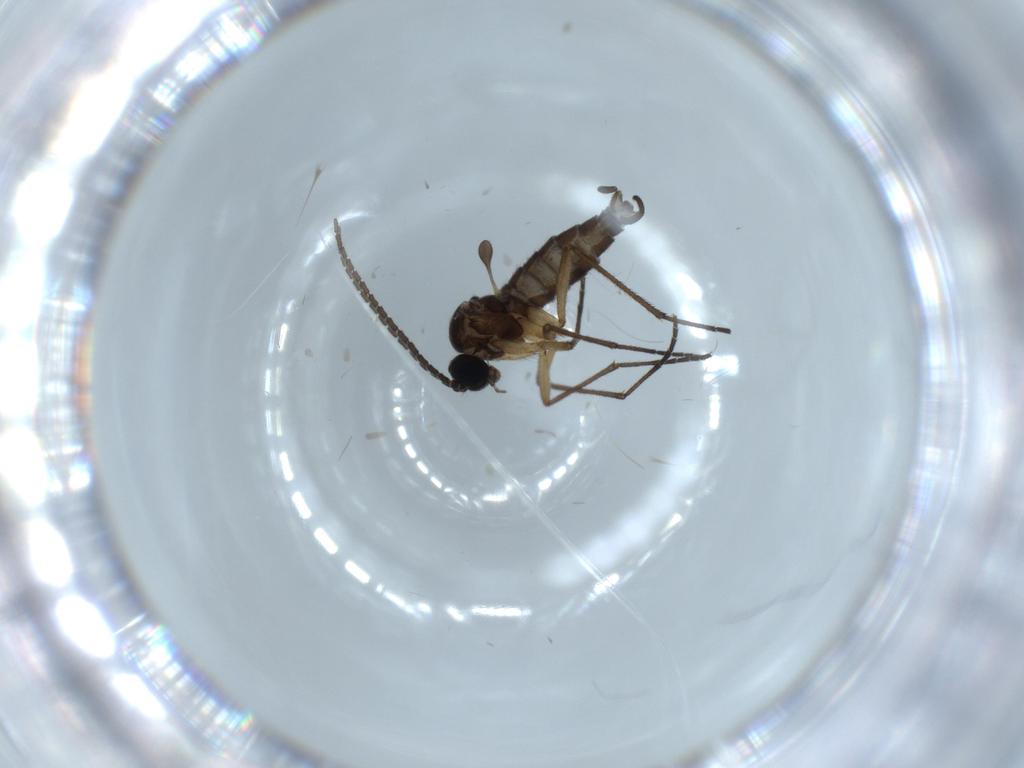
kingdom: Animalia
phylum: Arthropoda
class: Insecta
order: Diptera
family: Sciaridae
